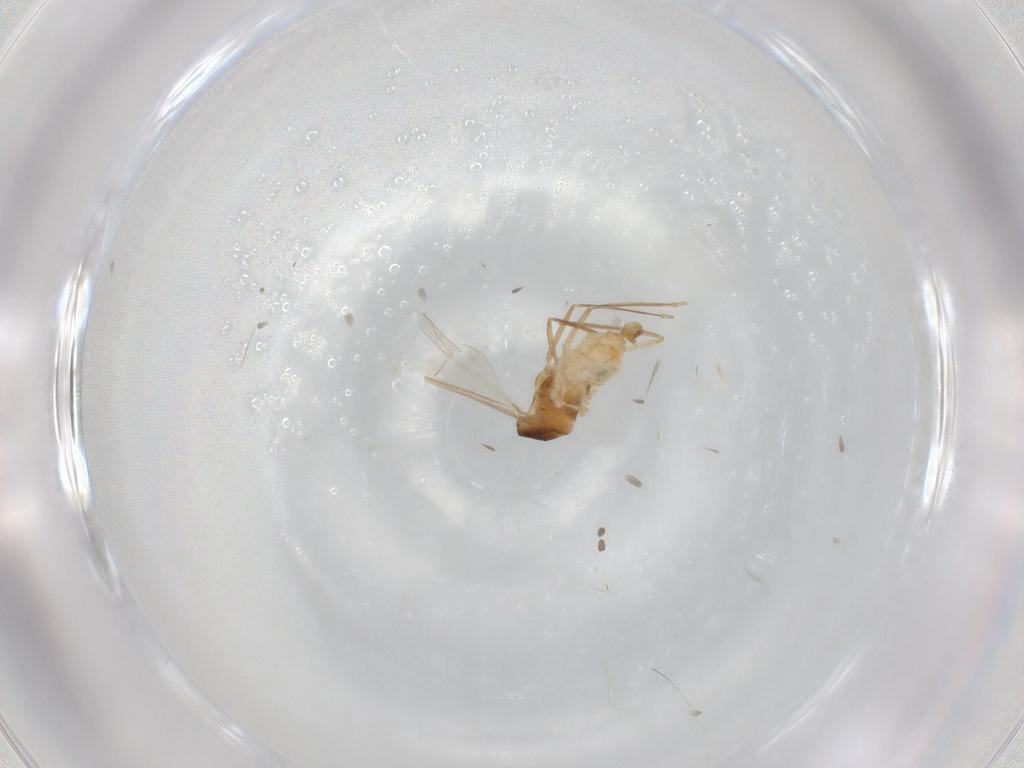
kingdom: Animalia
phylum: Arthropoda
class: Insecta
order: Diptera
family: Cecidomyiidae
